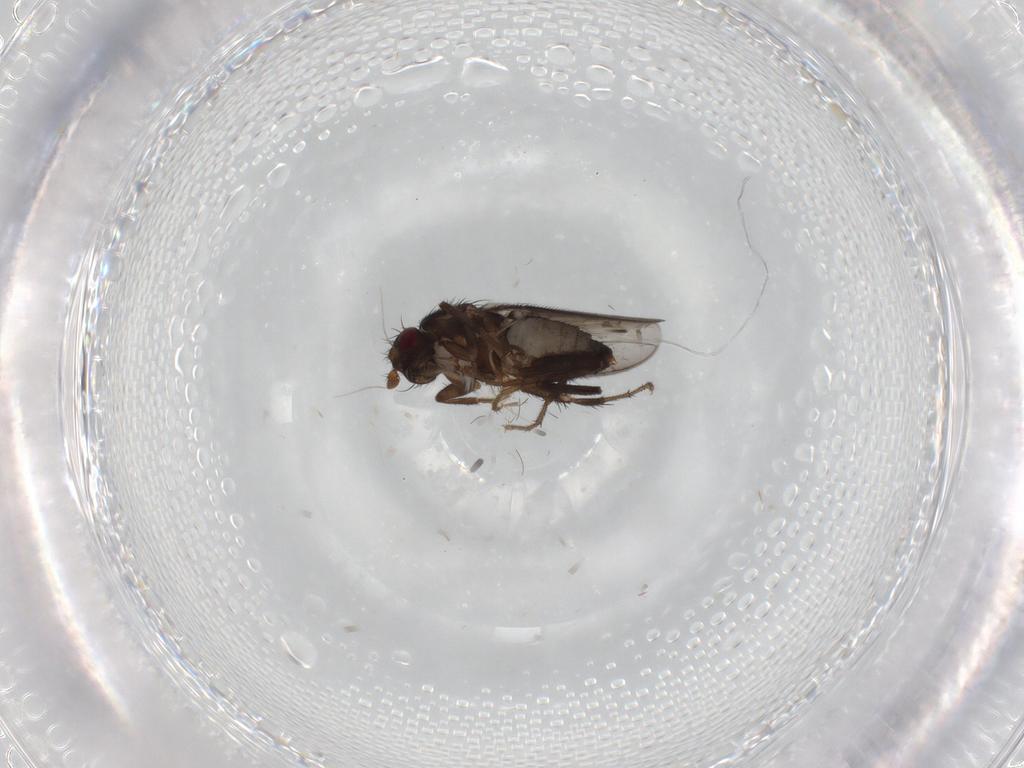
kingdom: Animalia
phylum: Arthropoda
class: Insecta
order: Diptera
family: Sphaeroceridae
